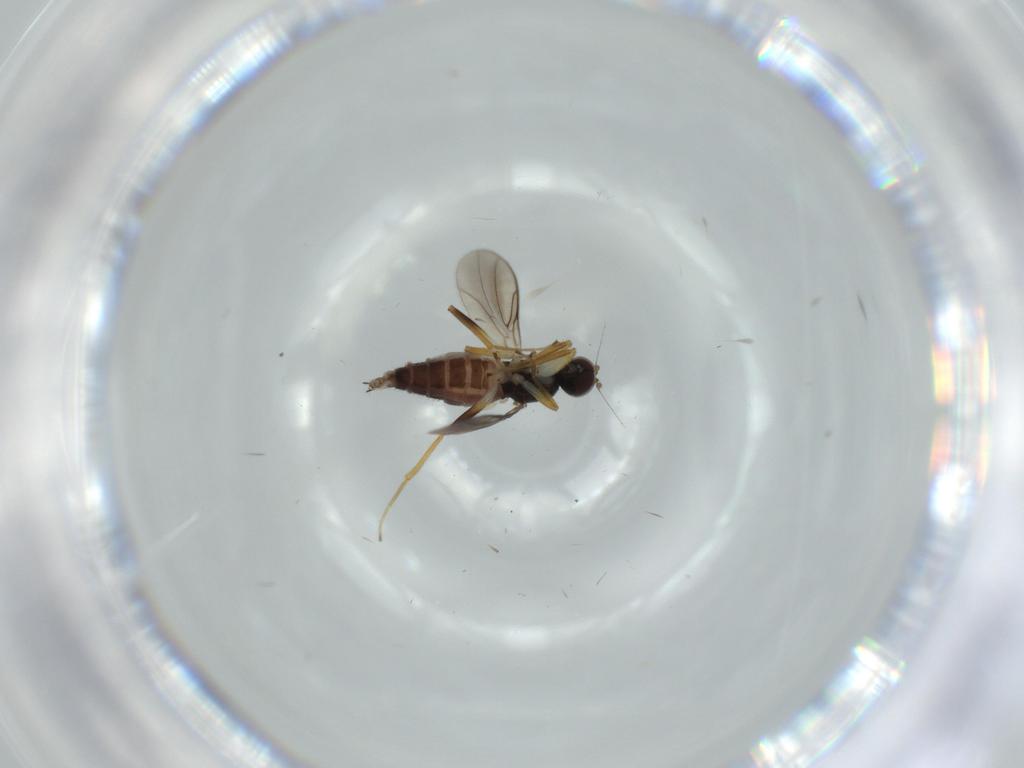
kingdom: Animalia
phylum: Arthropoda
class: Insecta
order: Diptera
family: Hybotidae
